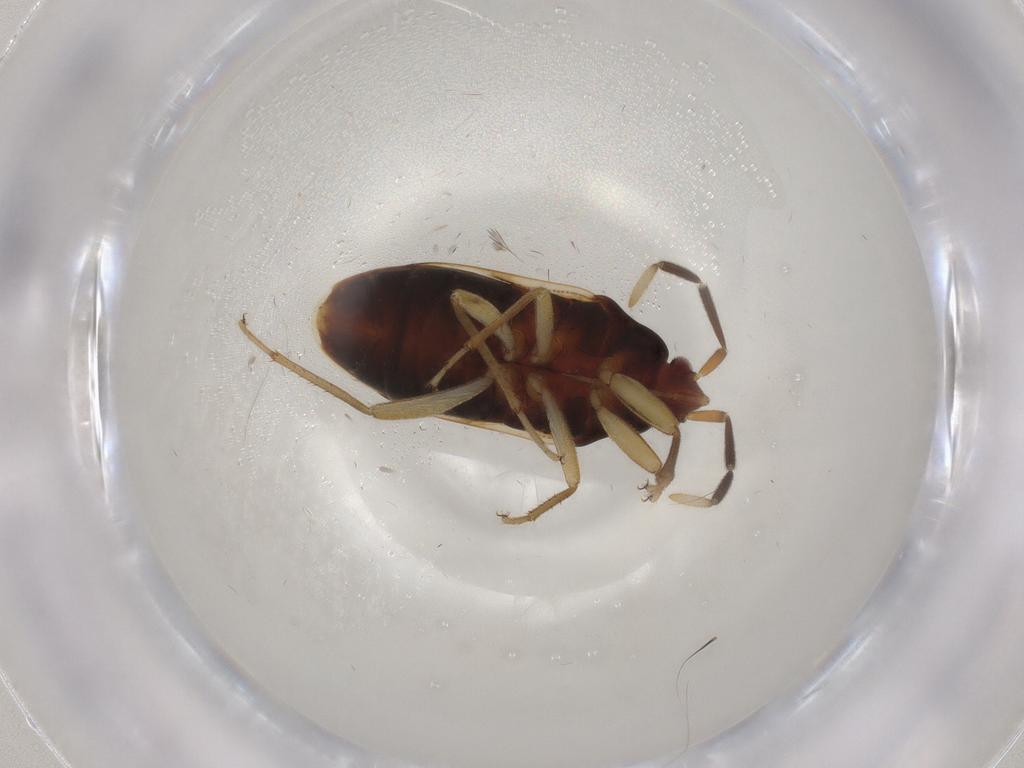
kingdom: Animalia
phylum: Arthropoda
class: Insecta
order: Hemiptera
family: Rhyparochromidae
